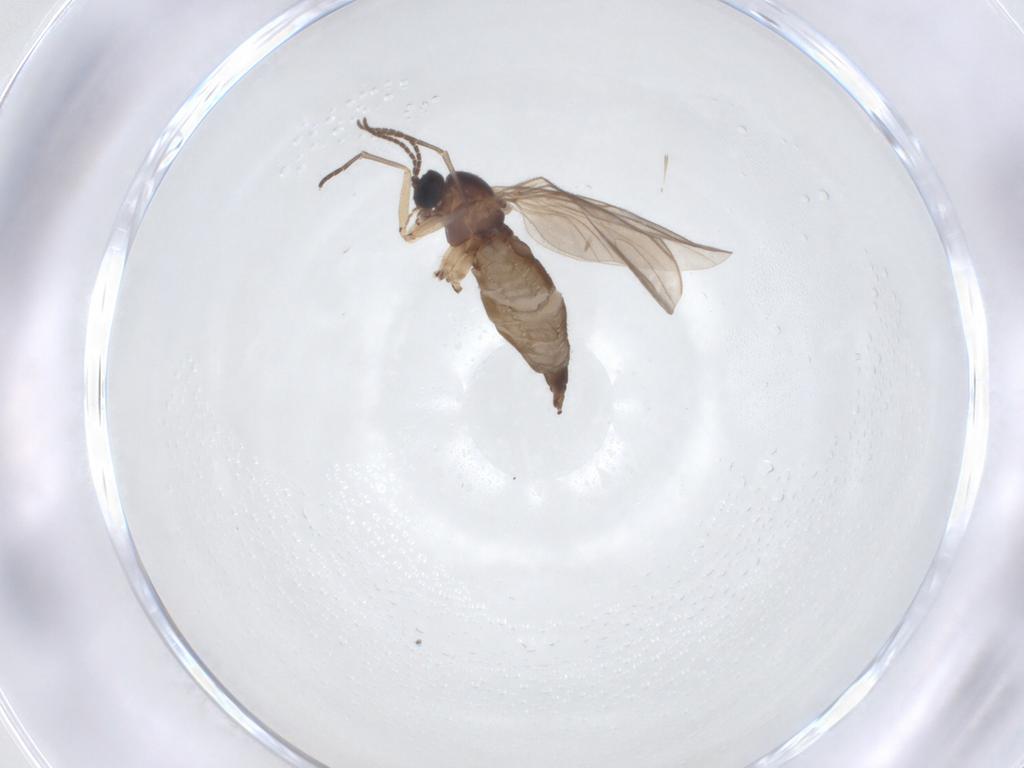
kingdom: Animalia
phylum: Arthropoda
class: Insecta
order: Diptera
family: Sciaridae
